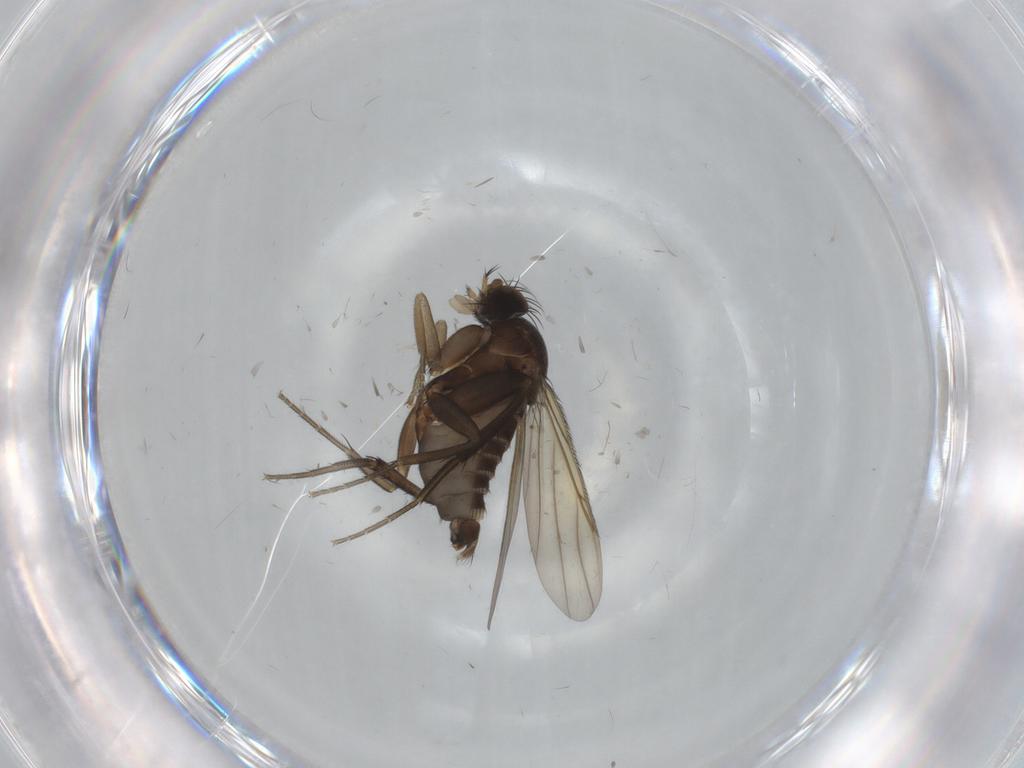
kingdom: Animalia
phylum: Arthropoda
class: Insecta
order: Diptera
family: Phoridae
